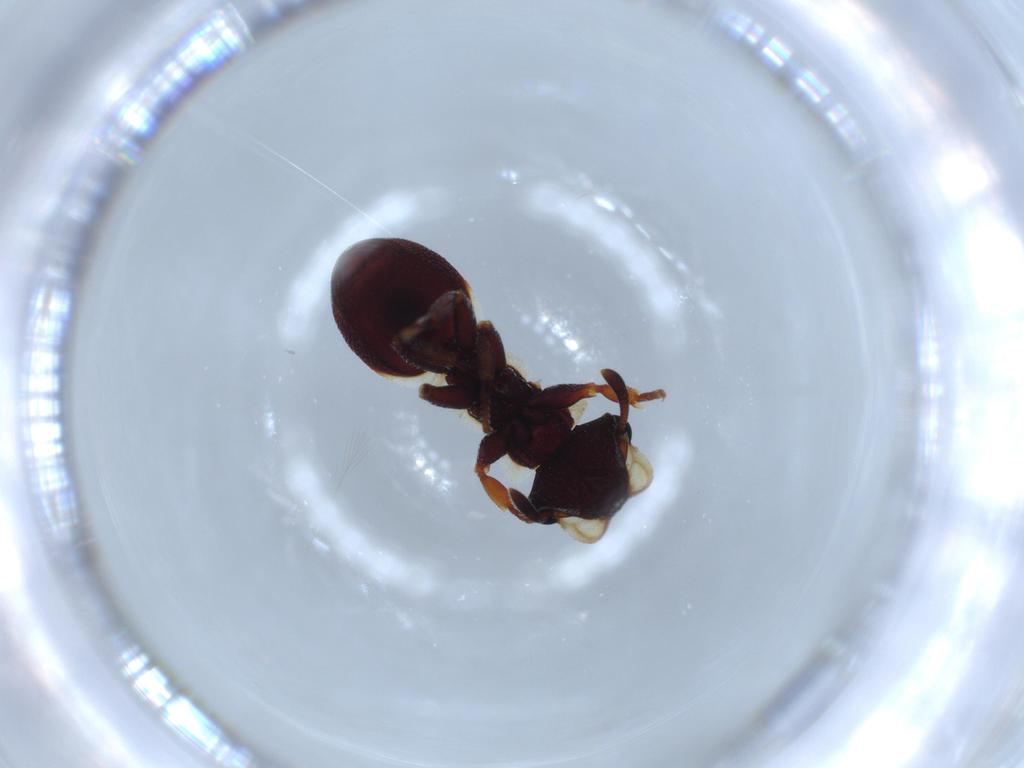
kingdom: Animalia
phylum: Arthropoda
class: Insecta
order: Hymenoptera
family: Formicidae
